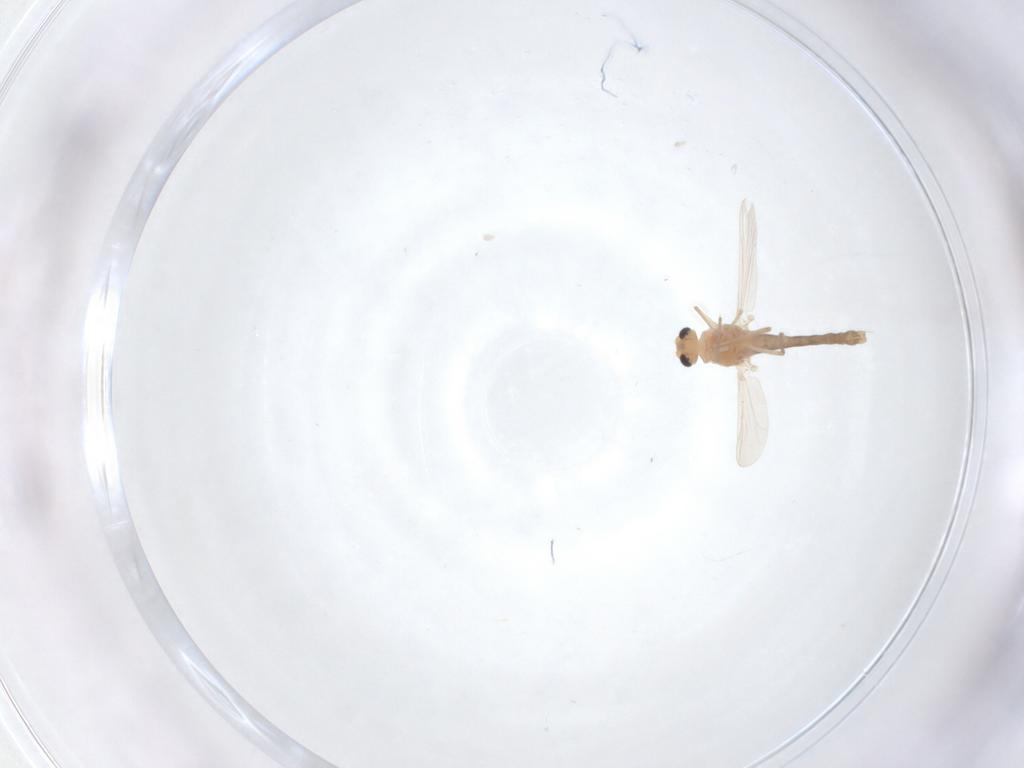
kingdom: Animalia
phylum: Arthropoda
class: Insecta
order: Diptera
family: Chironomidae
